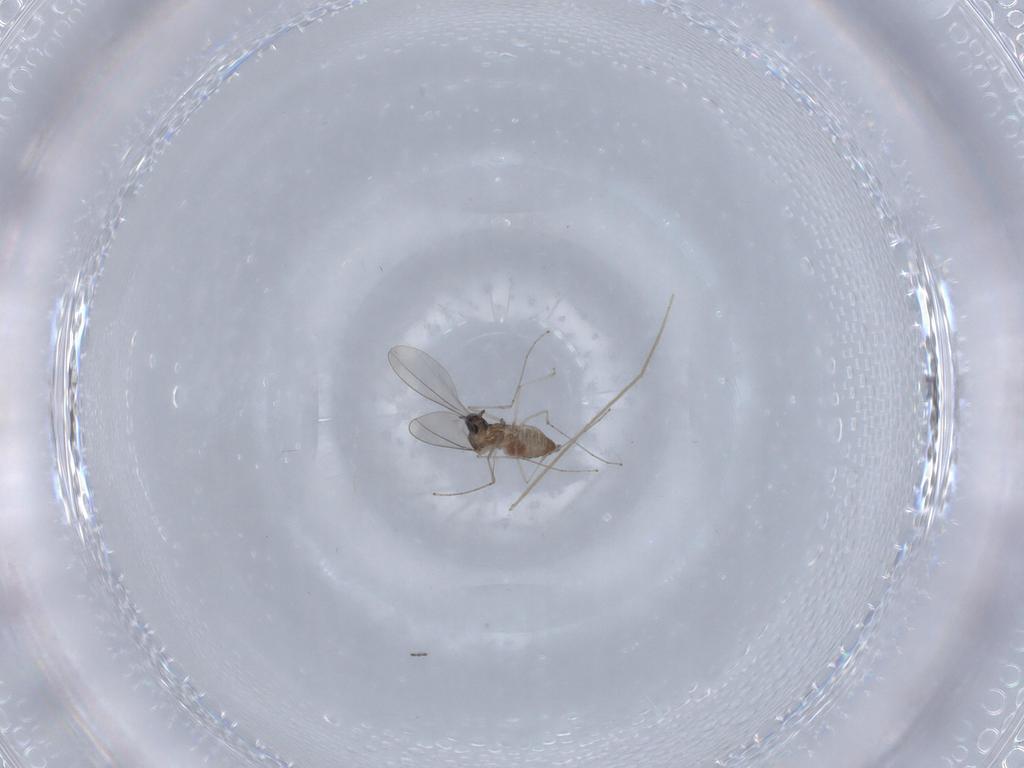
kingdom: Animalia
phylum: Arthropoda
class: Insecta
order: Diptera
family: Cecidomyiidae
